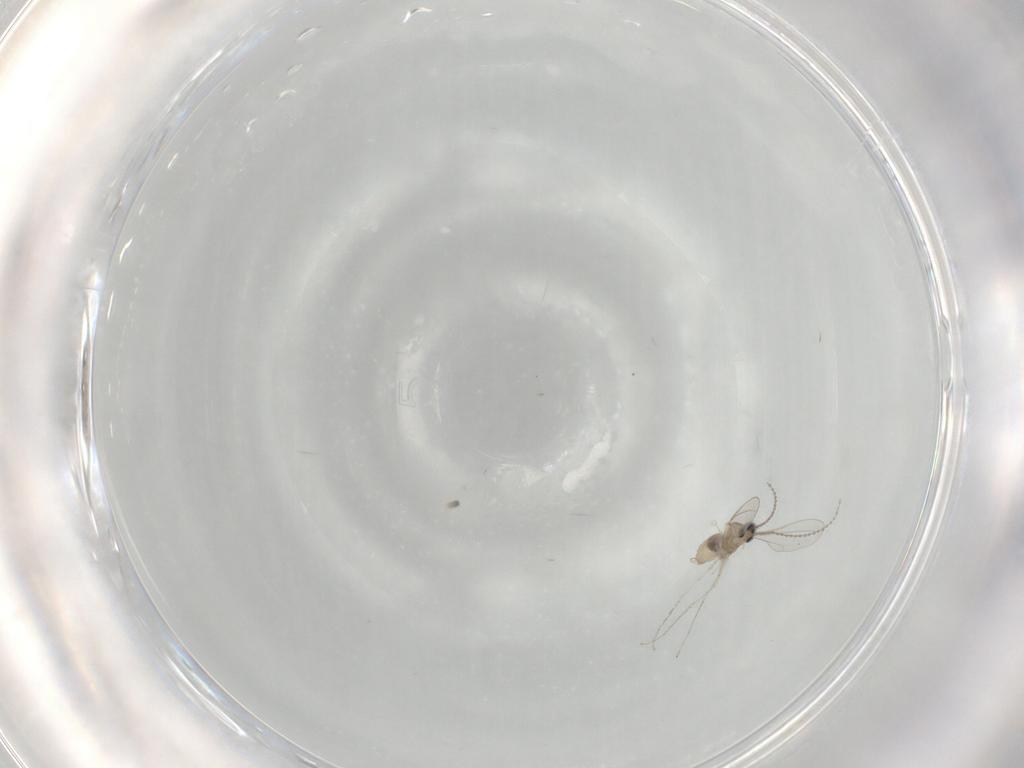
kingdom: Animalia
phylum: Arthropoda
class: Insecta
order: Diptera
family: Cecidomyiidae
